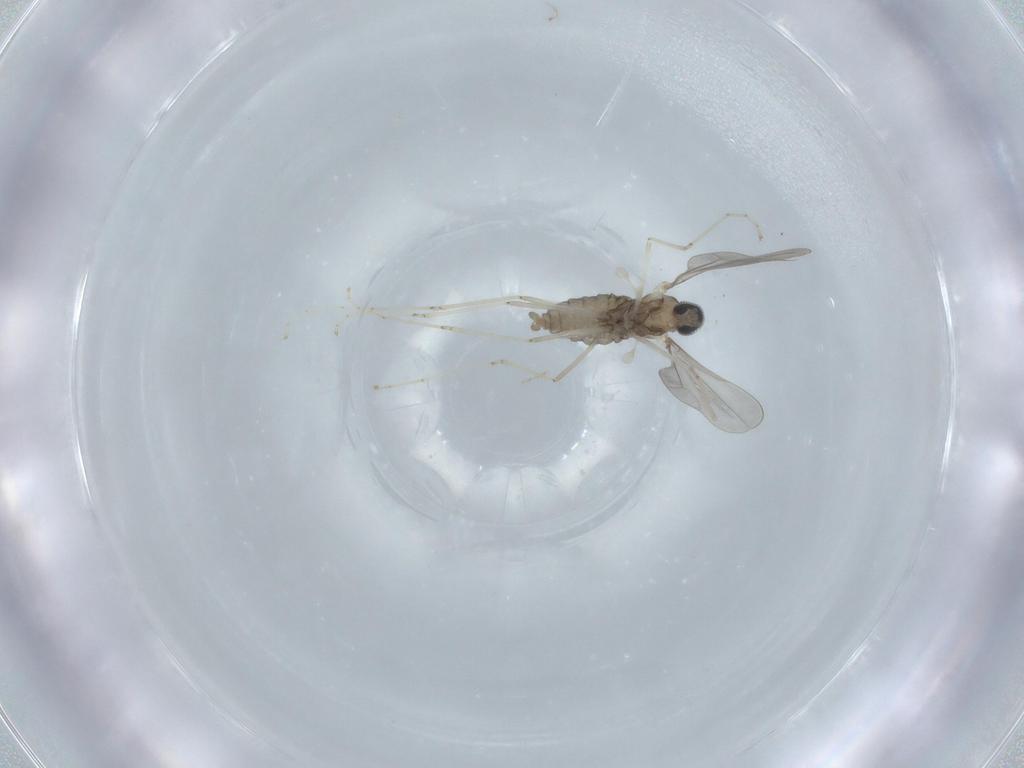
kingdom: Animalia
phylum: Arthropoda
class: Insecta
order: Diptera
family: Cecidomyiidae
